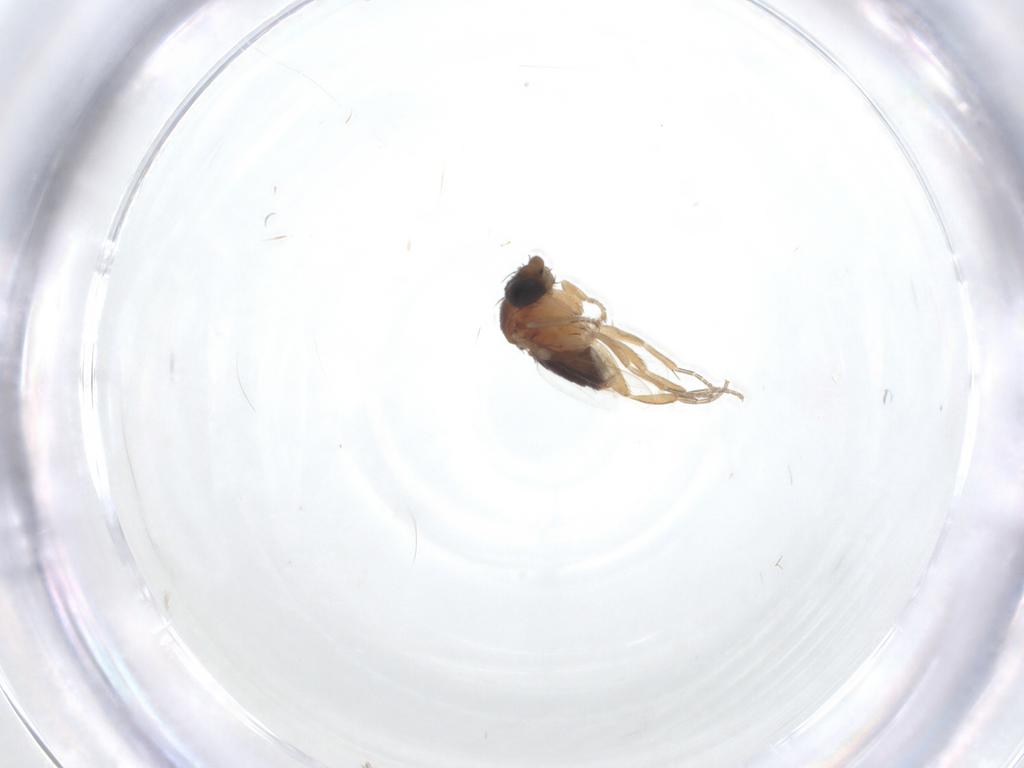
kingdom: Animalia
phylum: Arthropoda
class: Insecta
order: Diptera
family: Phoridae
